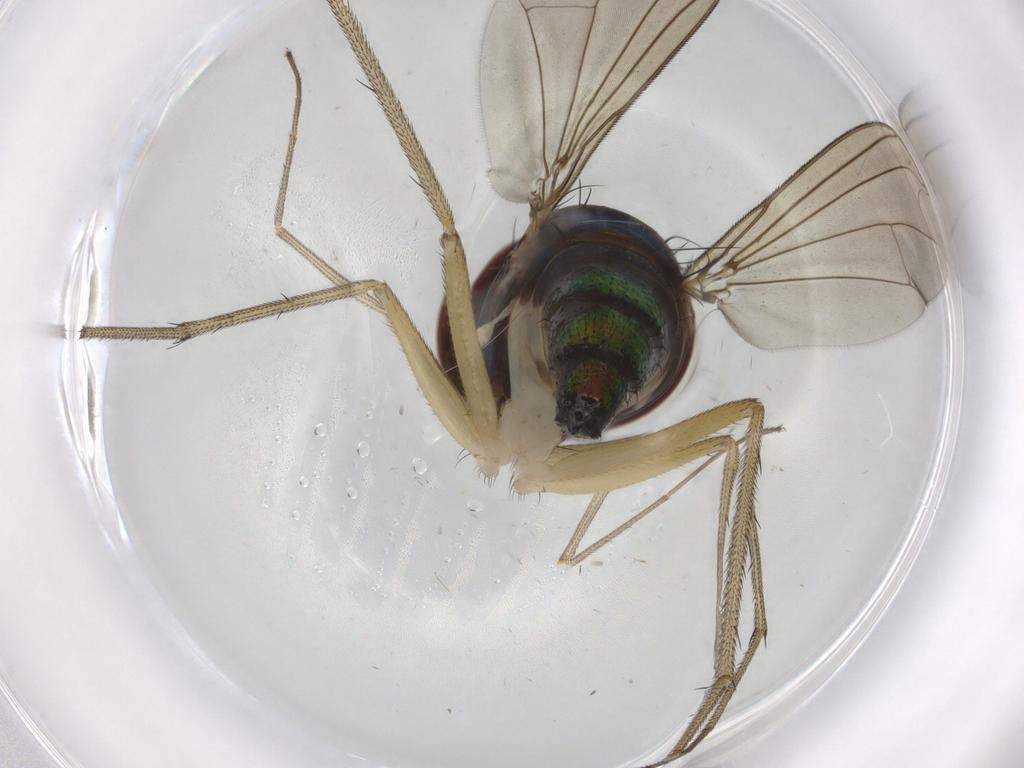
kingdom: Animalia
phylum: Arthropoda
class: Insecta
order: Diptera
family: Dolichopodidae
